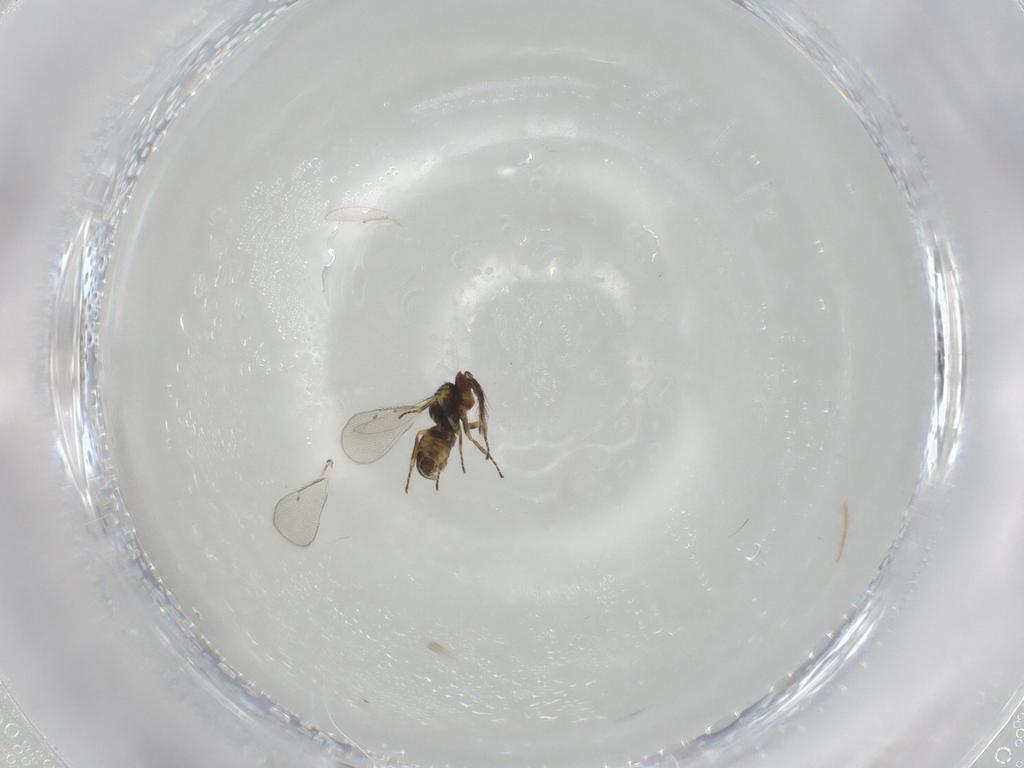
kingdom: Animalia
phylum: Arthropoda
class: Insecta
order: Hymenoptera
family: Eulophidae
